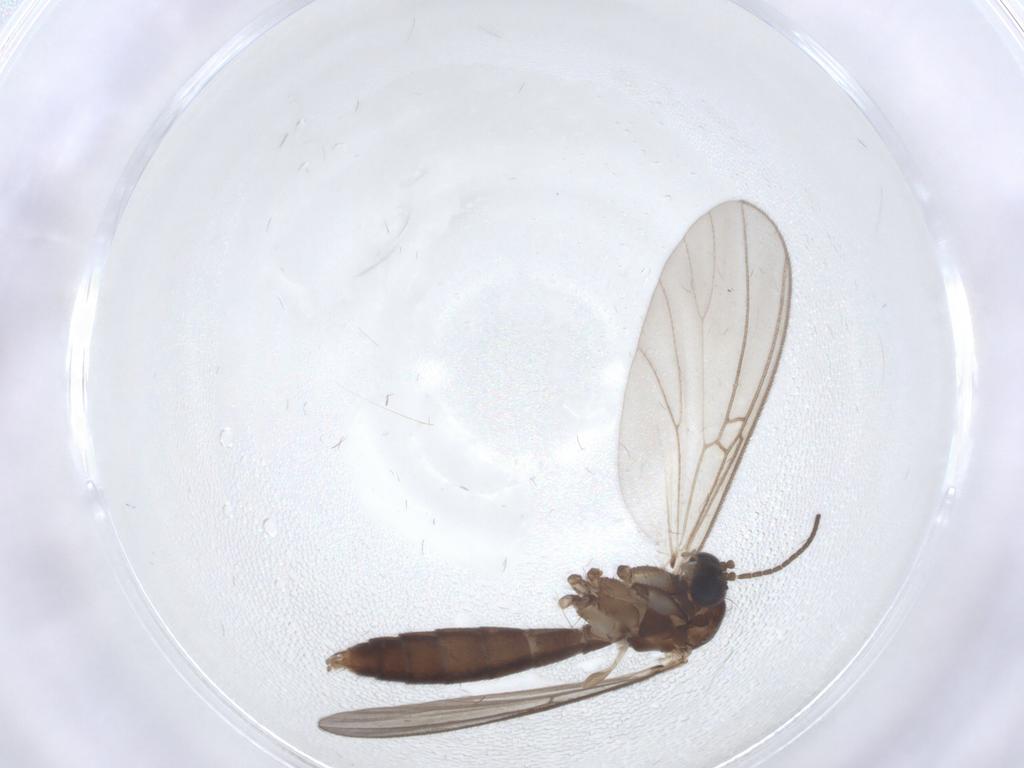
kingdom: Animalia
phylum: Arthropoda
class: Insecta
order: Diptera
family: Mycetophilidae
